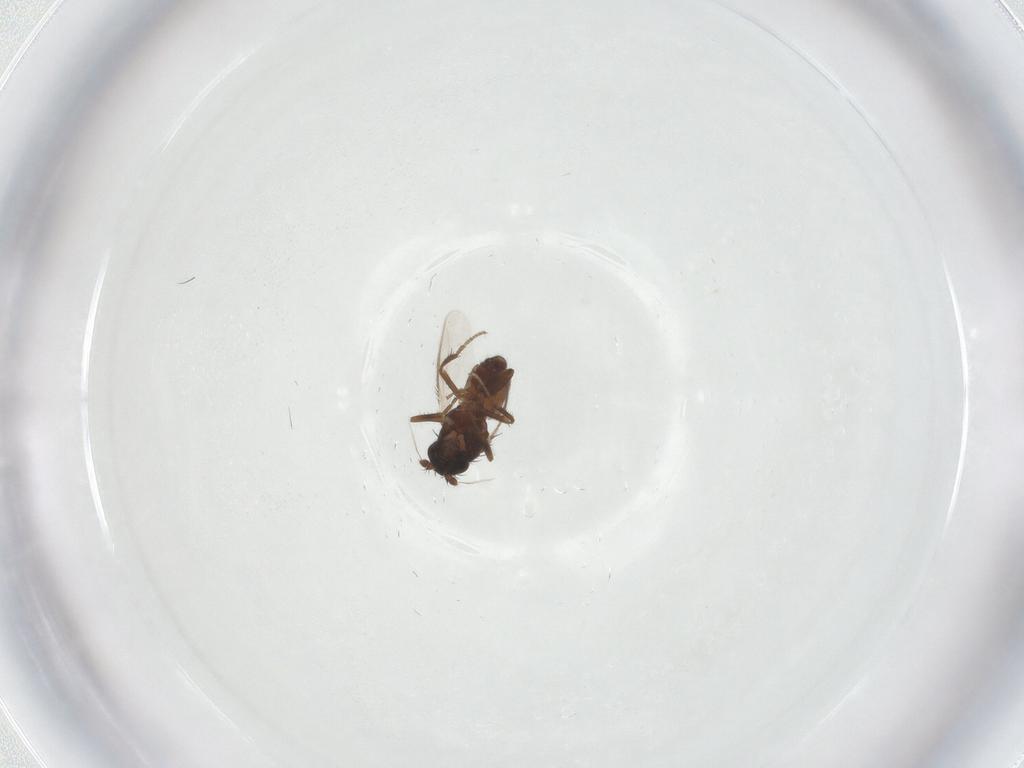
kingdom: Animalia
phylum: Arthropoda
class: Insecta
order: Diptera
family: Sphaeroceridae
